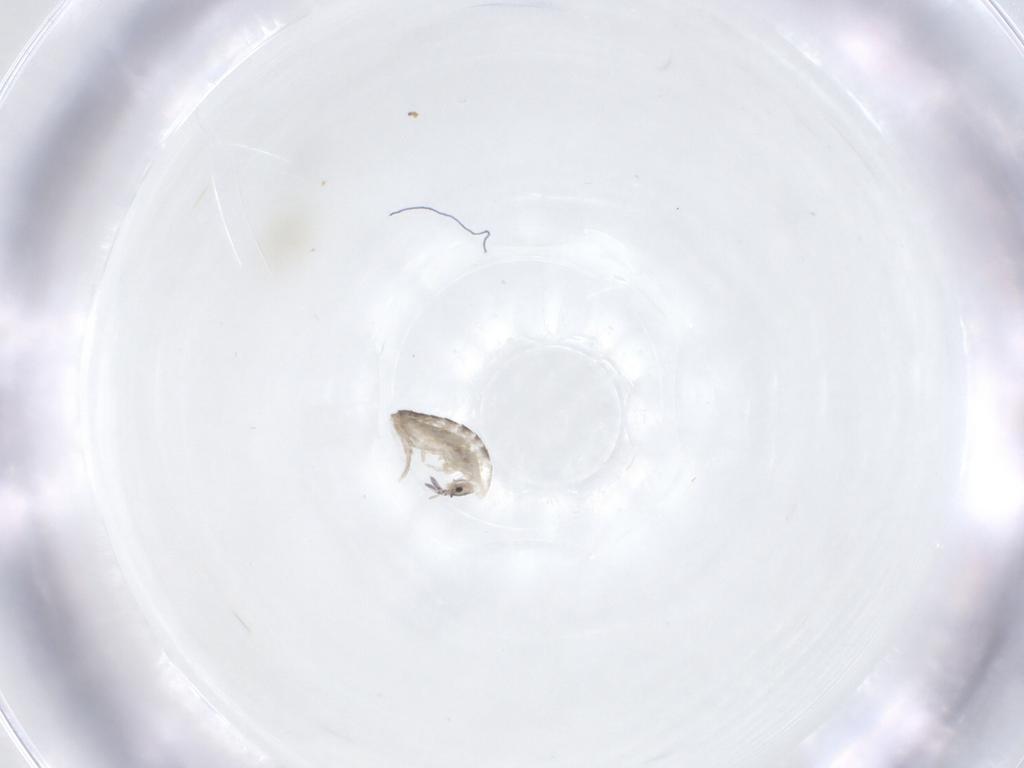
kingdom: Animalia
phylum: Arthropoda
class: Collembola
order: Entomobryomorpha
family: Entomobryidae
